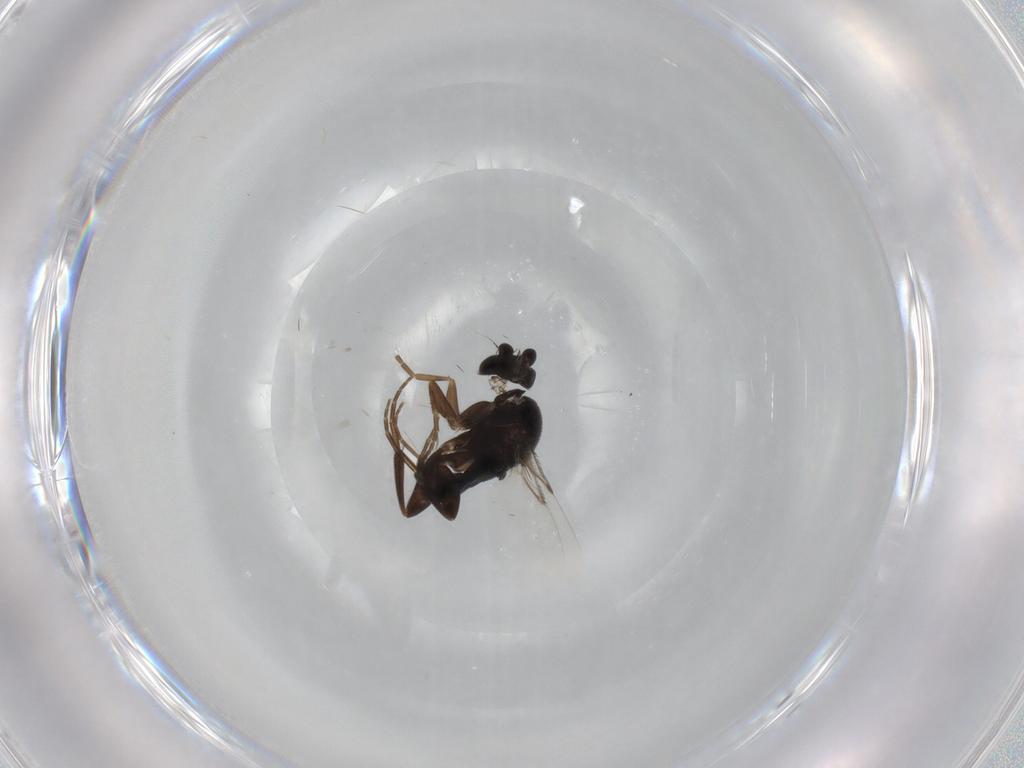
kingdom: Animalia
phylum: Arthropoda
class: Insecta
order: Diptera
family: Phoridae
